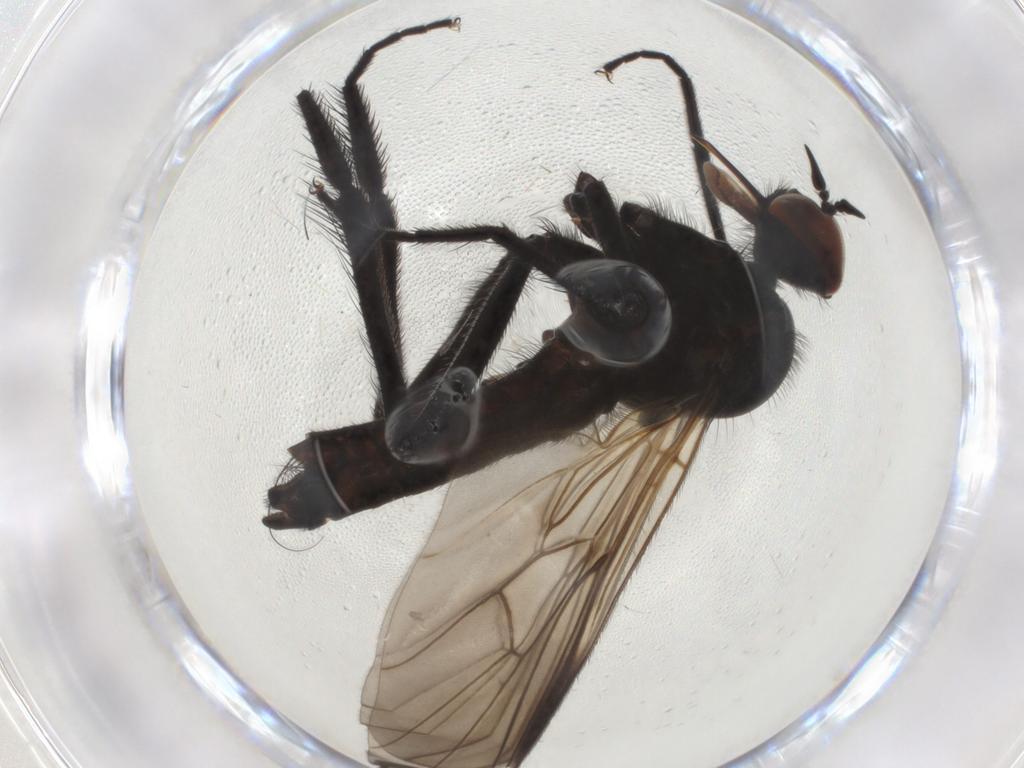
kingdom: Animalia
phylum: Arthropoda
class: Insecta
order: Diptera
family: Empididae
